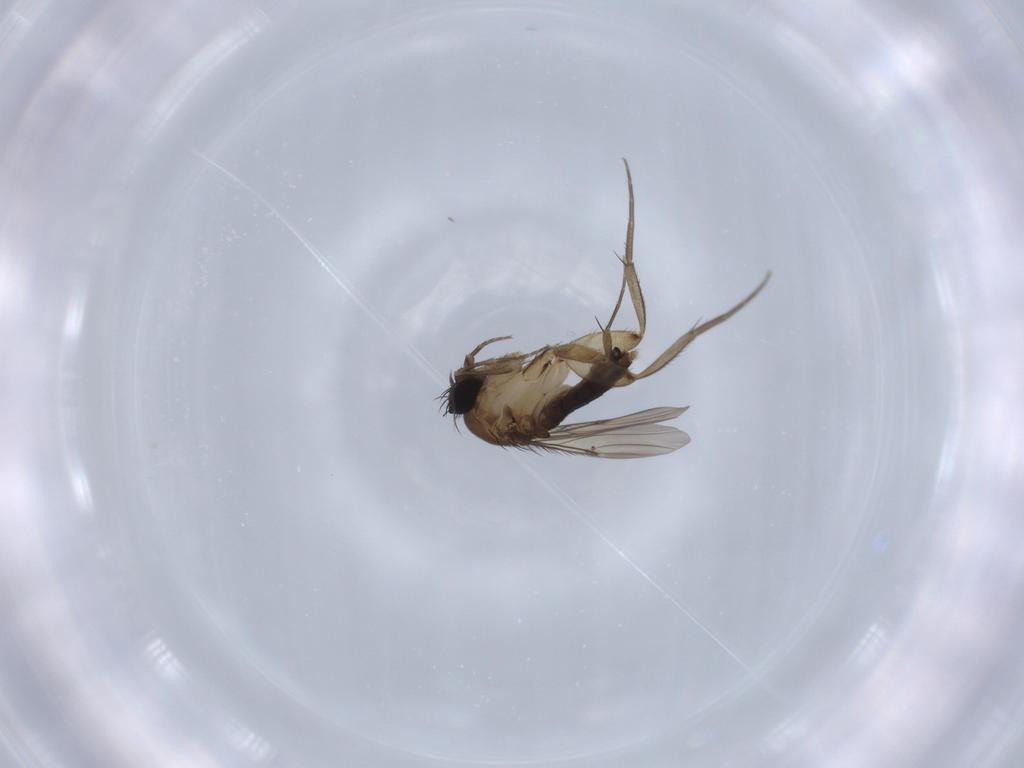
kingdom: Animalia
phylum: Arthropoda
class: Insecta
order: Diptera
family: Phoridae
